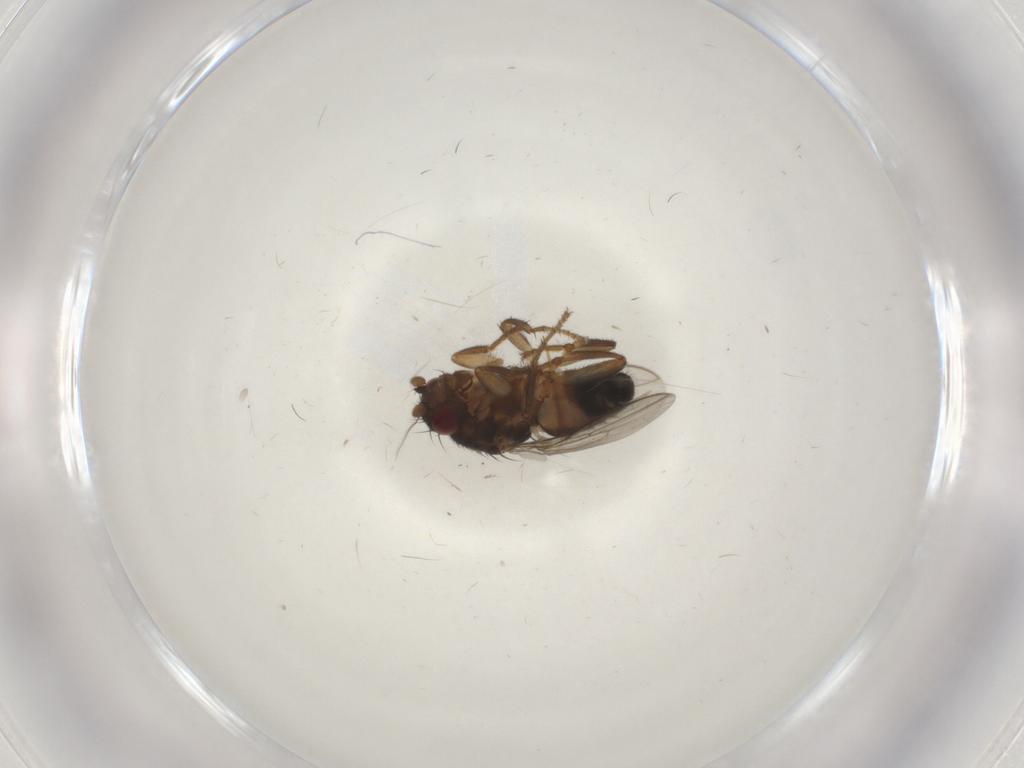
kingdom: Animalia
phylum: Arthropoda
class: Insecta
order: Diptera
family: Sphaeroceridae
